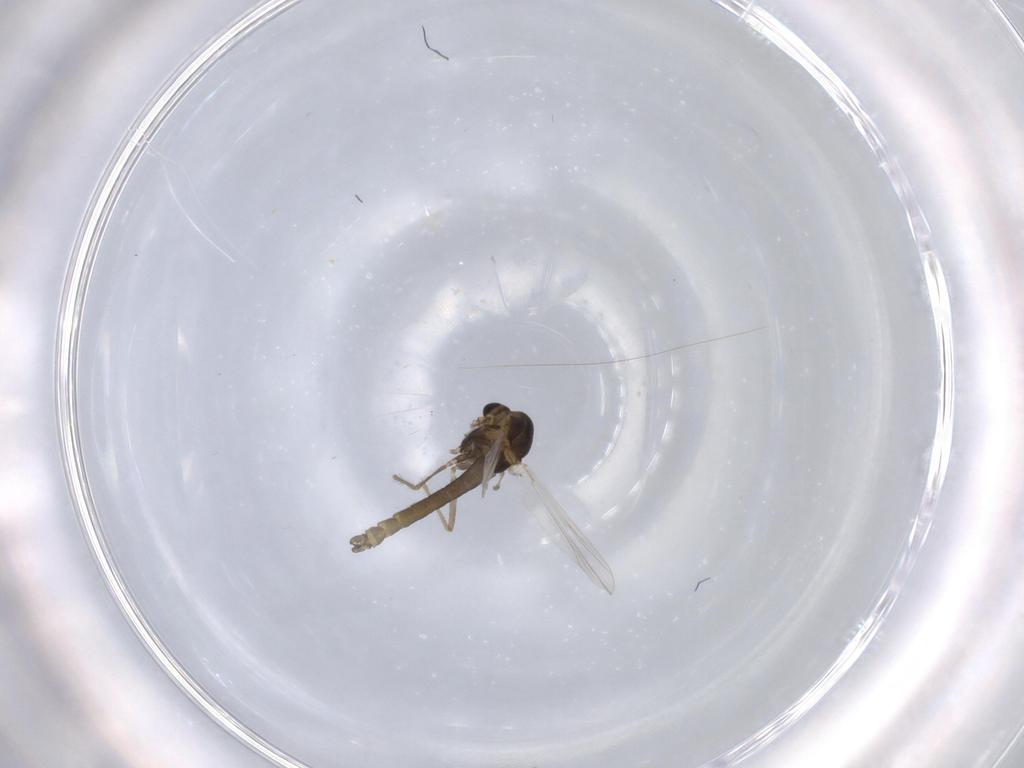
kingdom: Animalia
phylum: Arthropoda
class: Insecta
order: Diptera
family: Chironomidae
